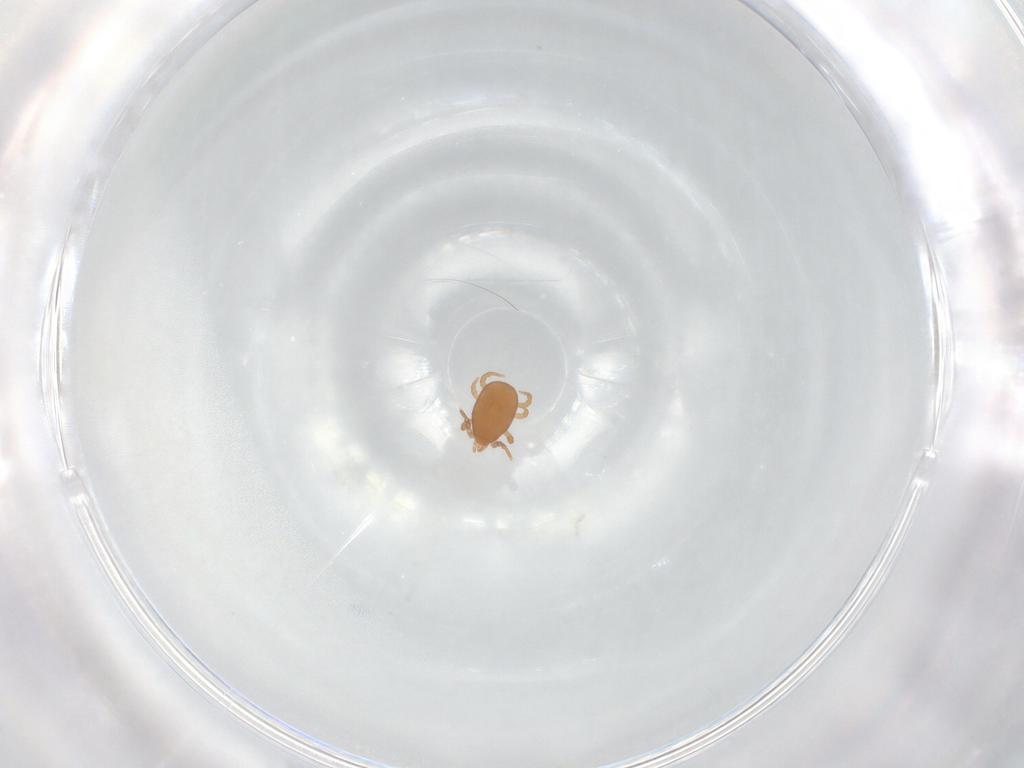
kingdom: Animalia
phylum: Arthropoda
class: Arachnida
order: Mesostigmata
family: Eviphididae
